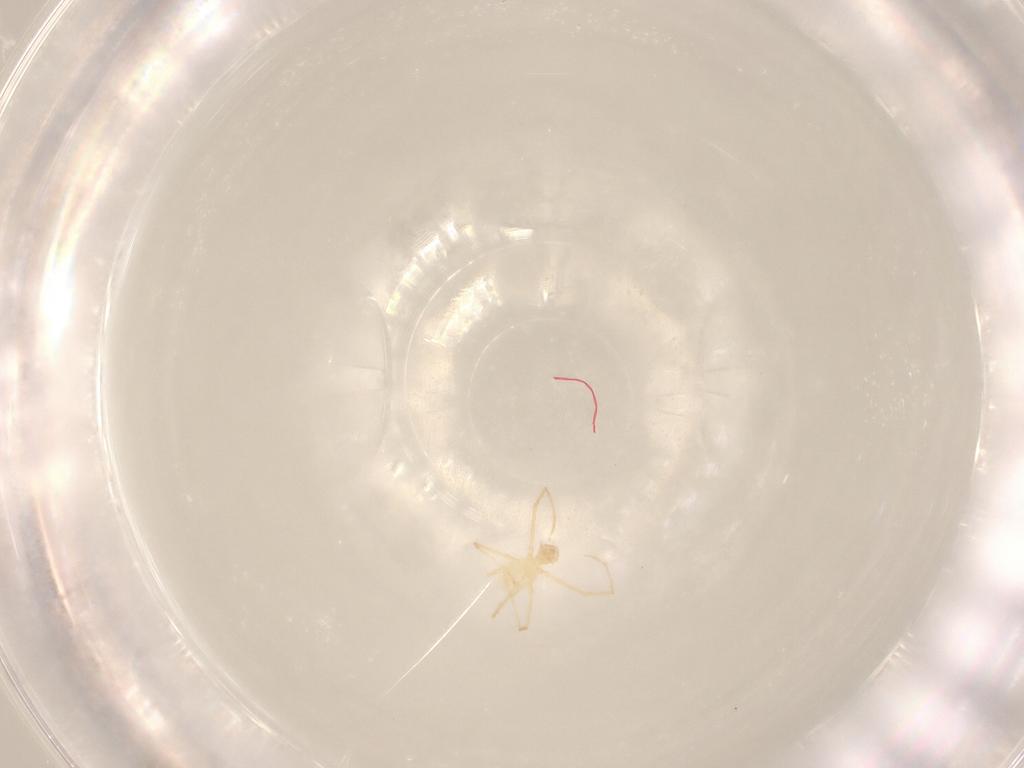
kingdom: Animalia
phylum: Arthropoda
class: Arachnida
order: Trombidiformes
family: Erythraeidae
